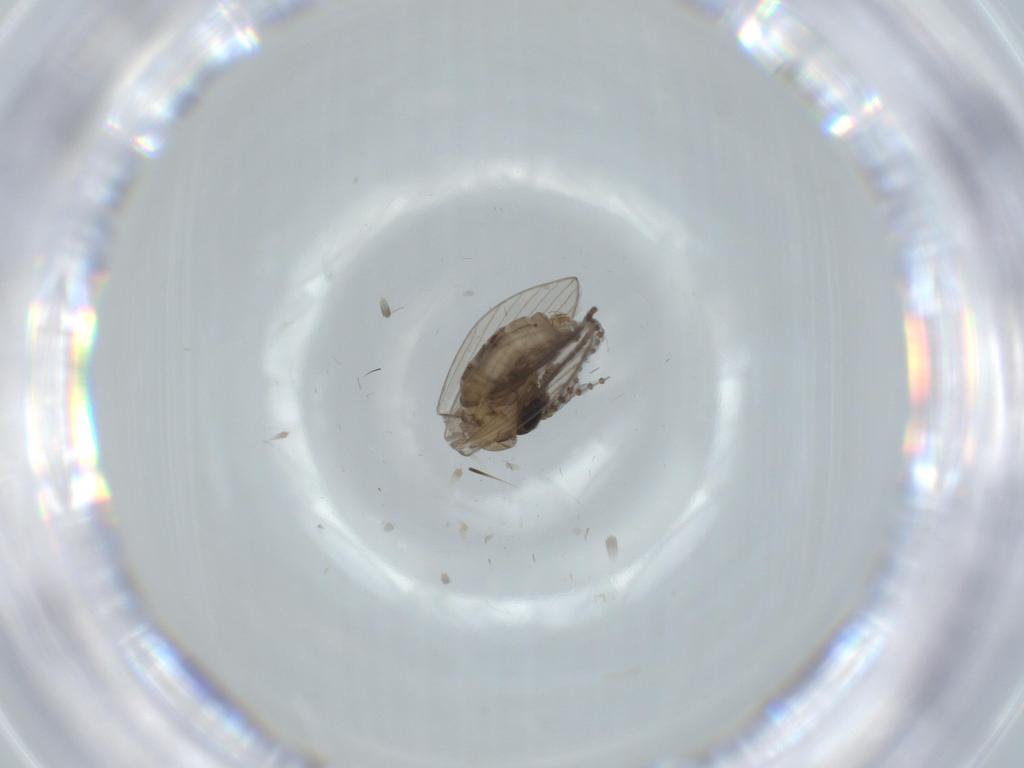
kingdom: Animalia
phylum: Arthropoda
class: Insecta
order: Diptera
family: Sciaridae
